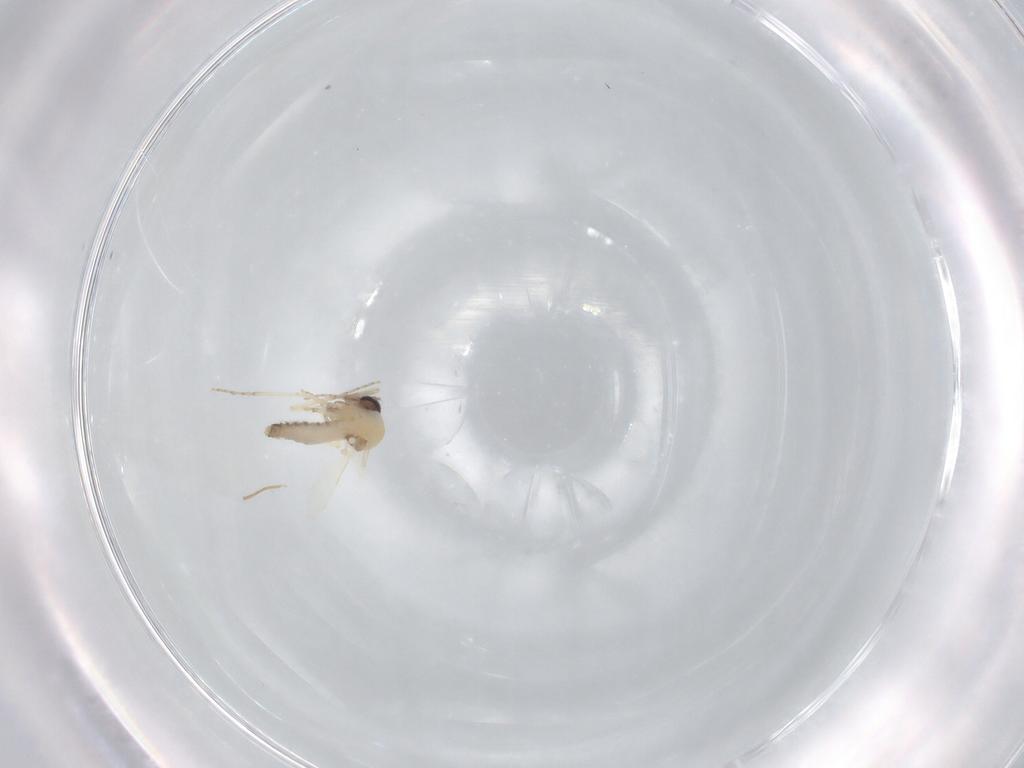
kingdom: Animalia
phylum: Arthropoda
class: Insecta
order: Diptera
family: Ceratopogonidae
